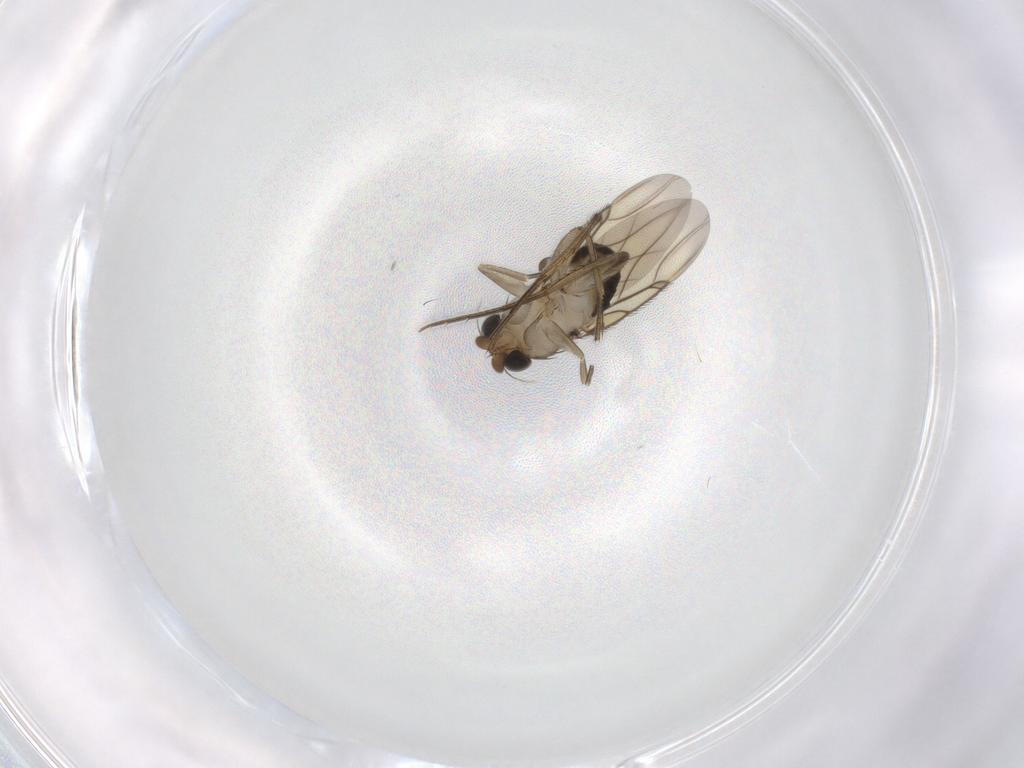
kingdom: Animalia
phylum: Arthropoda
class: Insecta
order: Diptera
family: Phoridae
